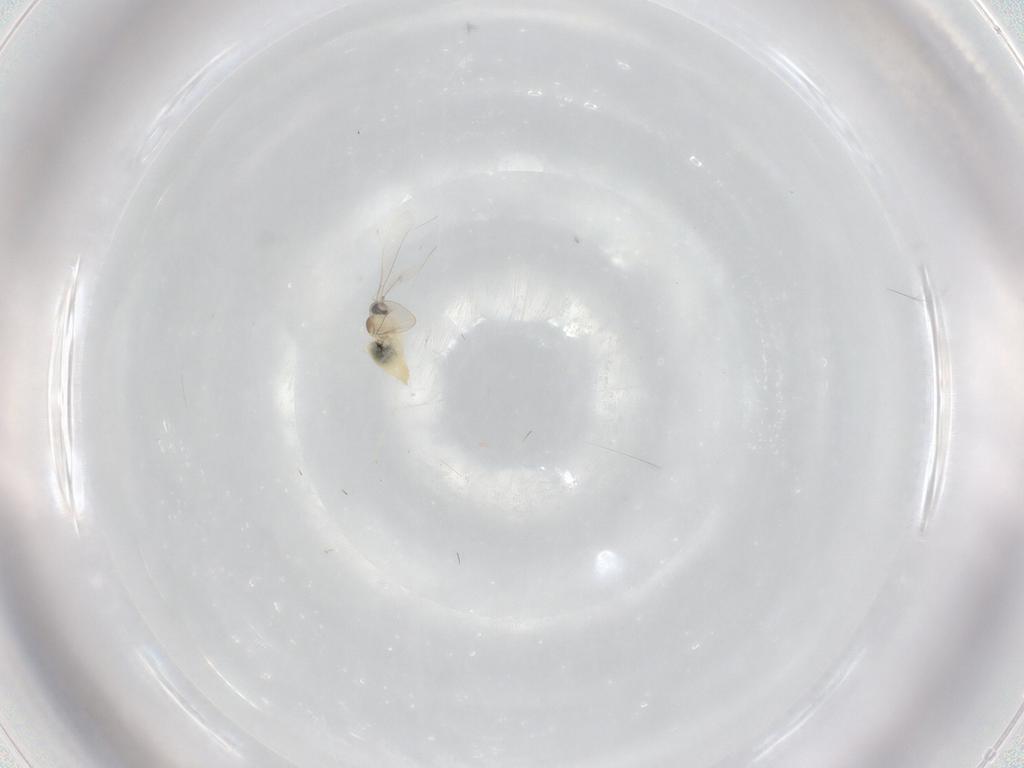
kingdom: Animalia
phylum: Arthropoda
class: Insecta
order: Diptera
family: Cecidomyiidae
